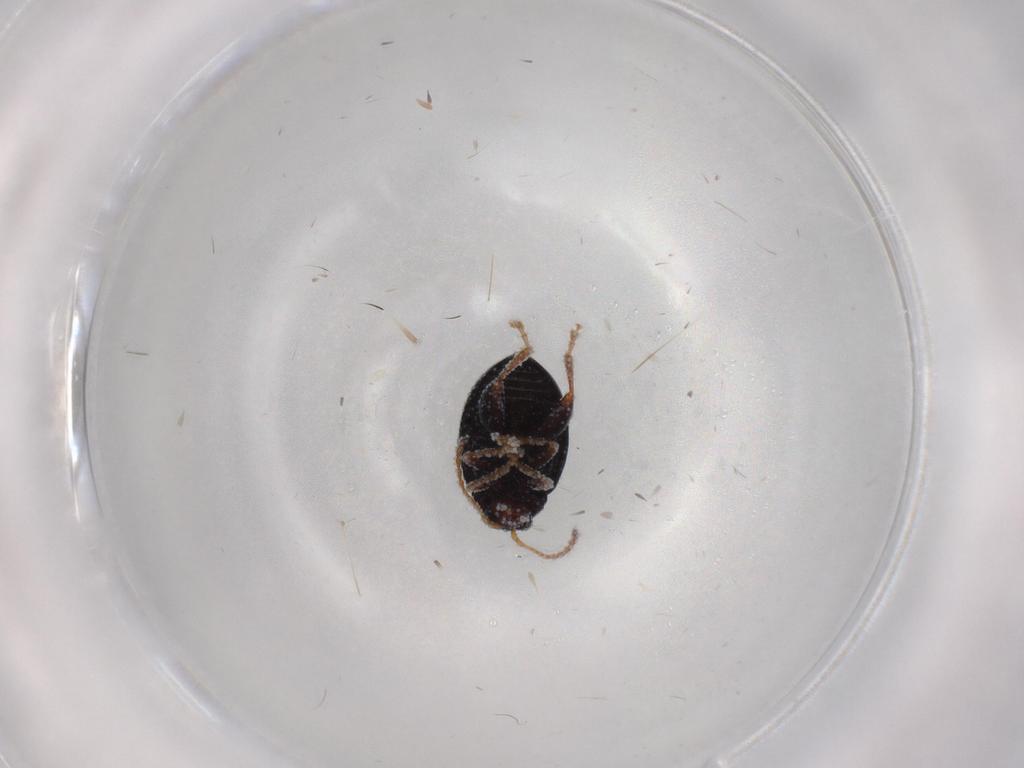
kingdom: Animalia
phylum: Arthropoda
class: Insecta
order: Coleoptera
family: Chrysomelidae
